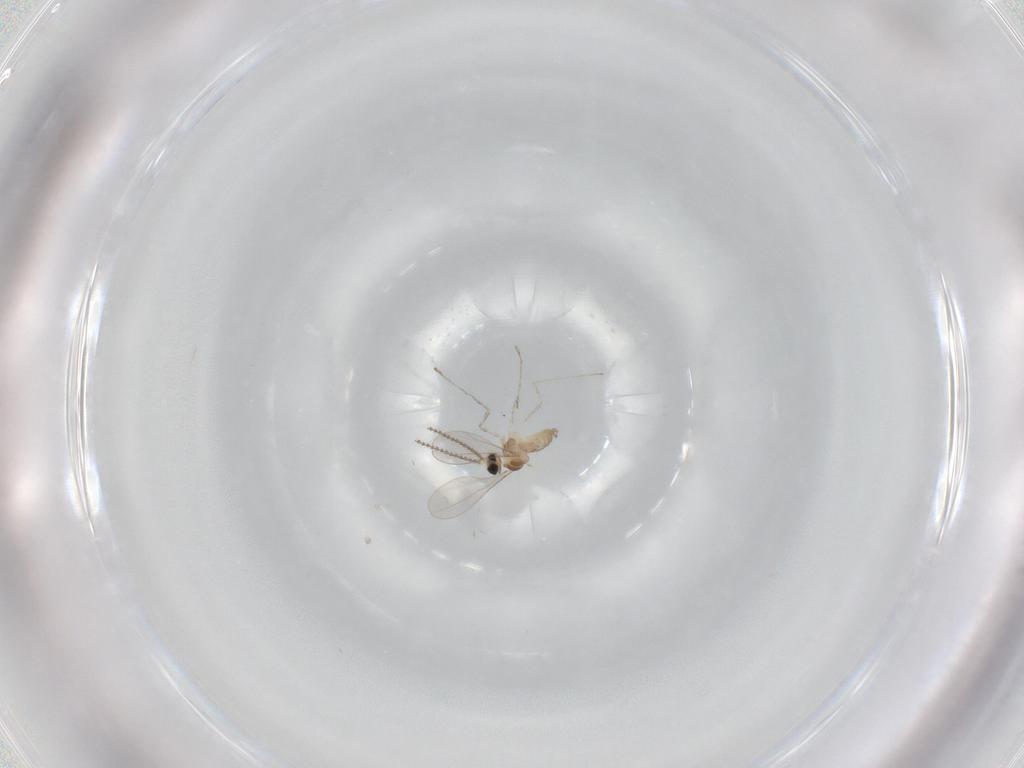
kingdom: Animalia
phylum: Arthropoda
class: Insecta
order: Diptera
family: Cecidomyiidae
